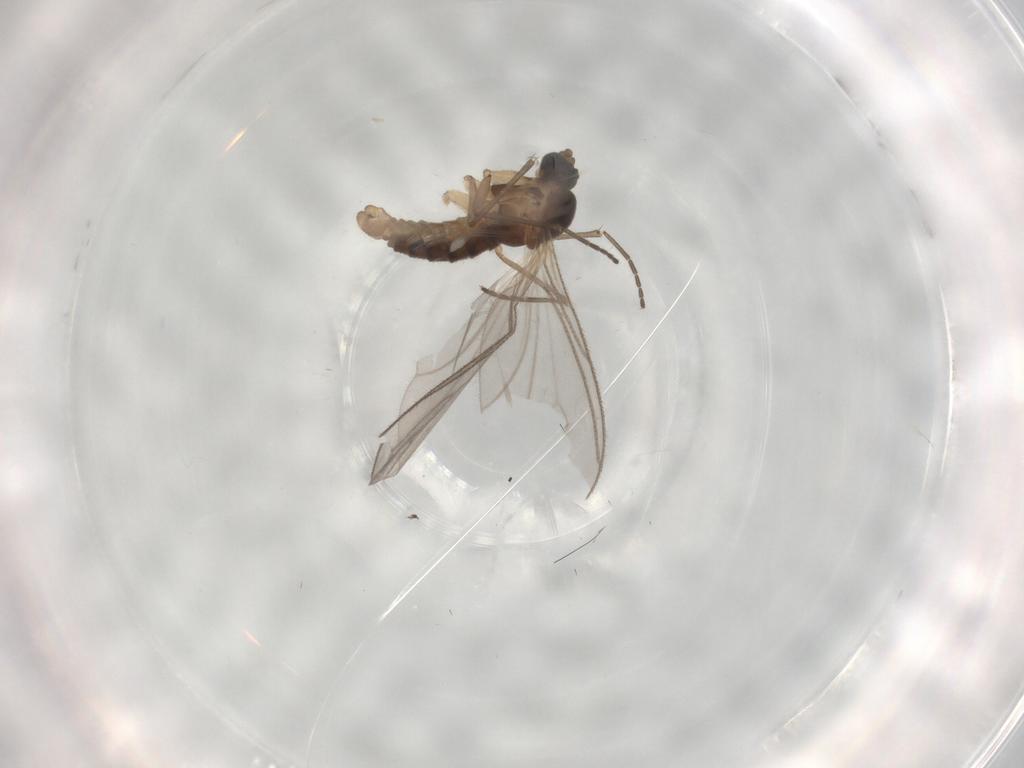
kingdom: Animalia
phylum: Arthropoda
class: Insecta
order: Diptera
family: Sciaridae
